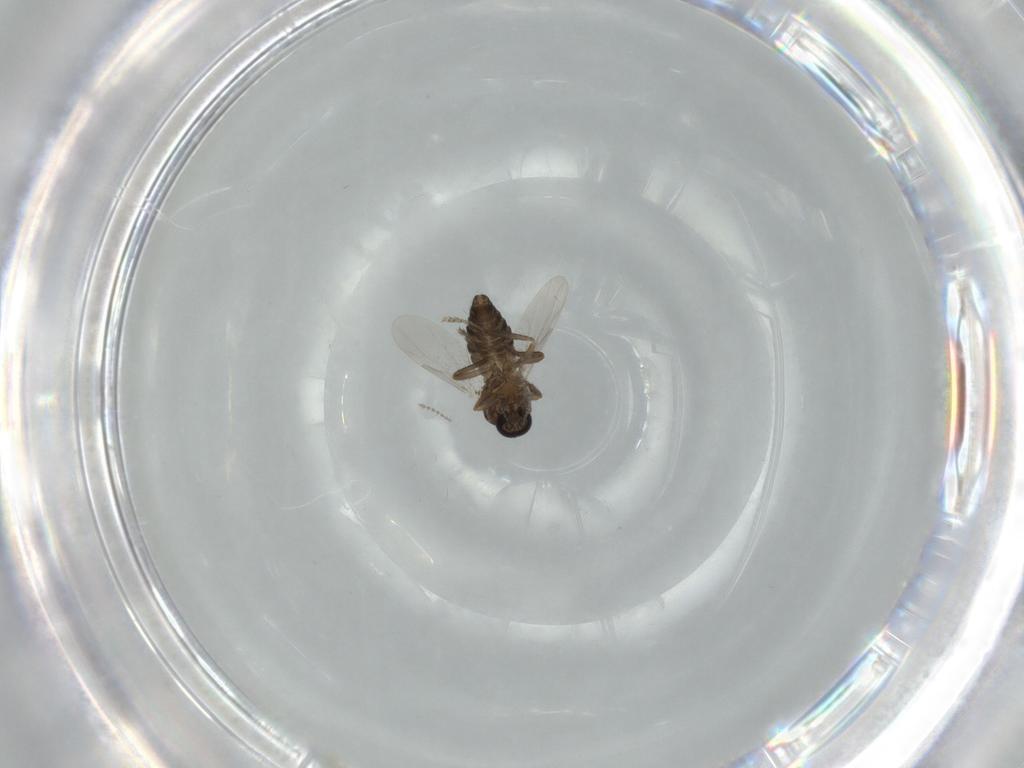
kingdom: Animalia
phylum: Arthropoda
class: Insecta
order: Diptera
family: Ceratopogonidae
